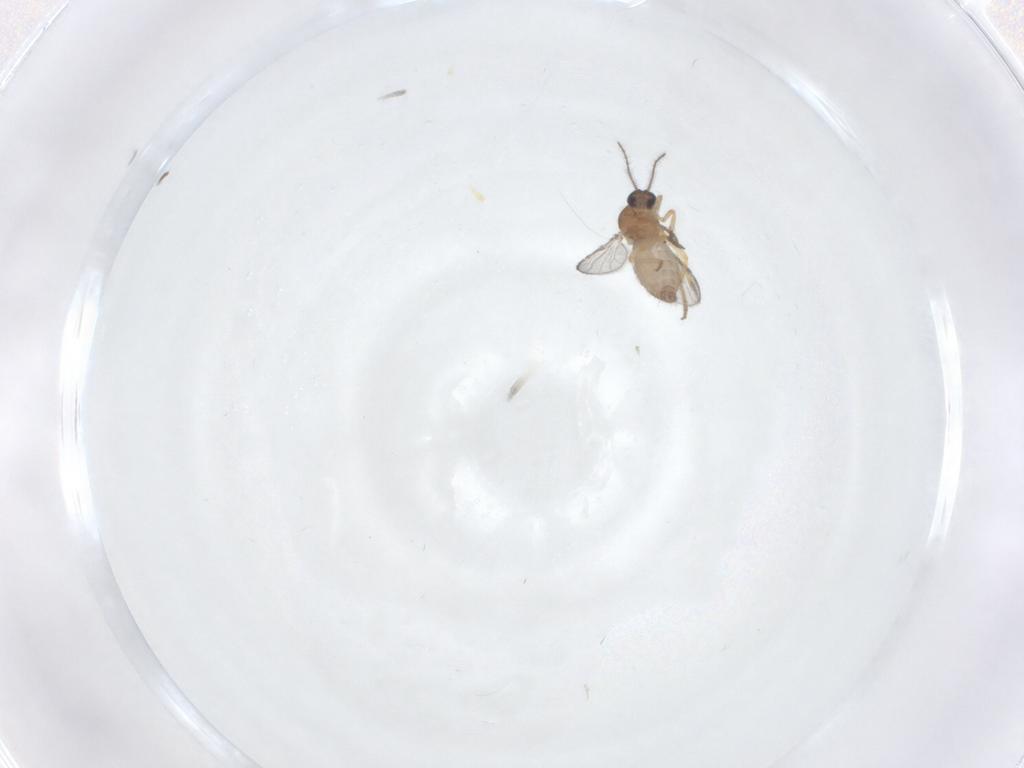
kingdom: Animalia
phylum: Arthropoda
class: Insecta
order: Diptera
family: Ceratopogonidae
